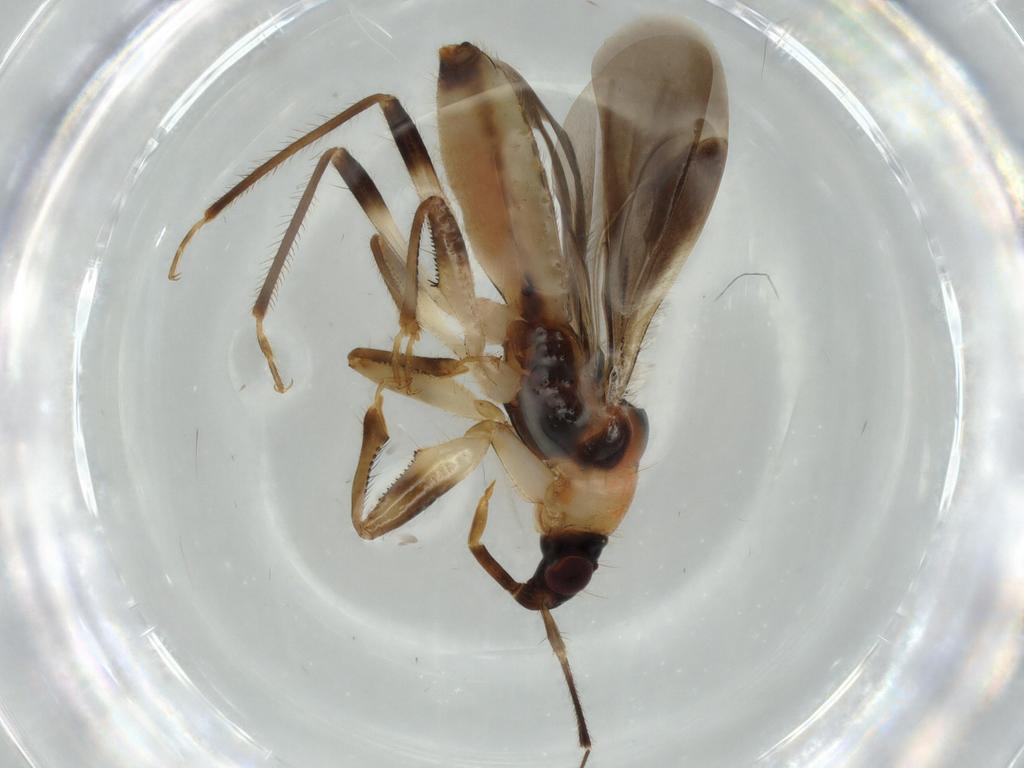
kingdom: Animalia
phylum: Arthropoda
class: Insecta
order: Hemiptera
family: Nabidae
